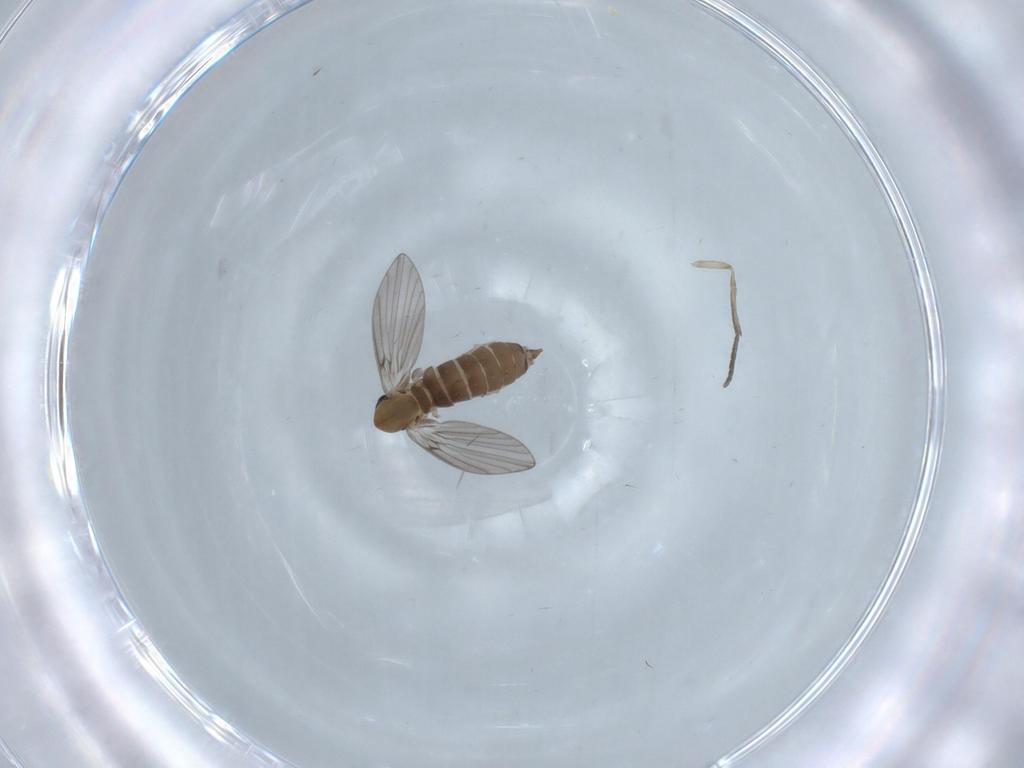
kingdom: Animalia
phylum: Arthropoda
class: Insecta
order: Diptera
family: Psychodidae
